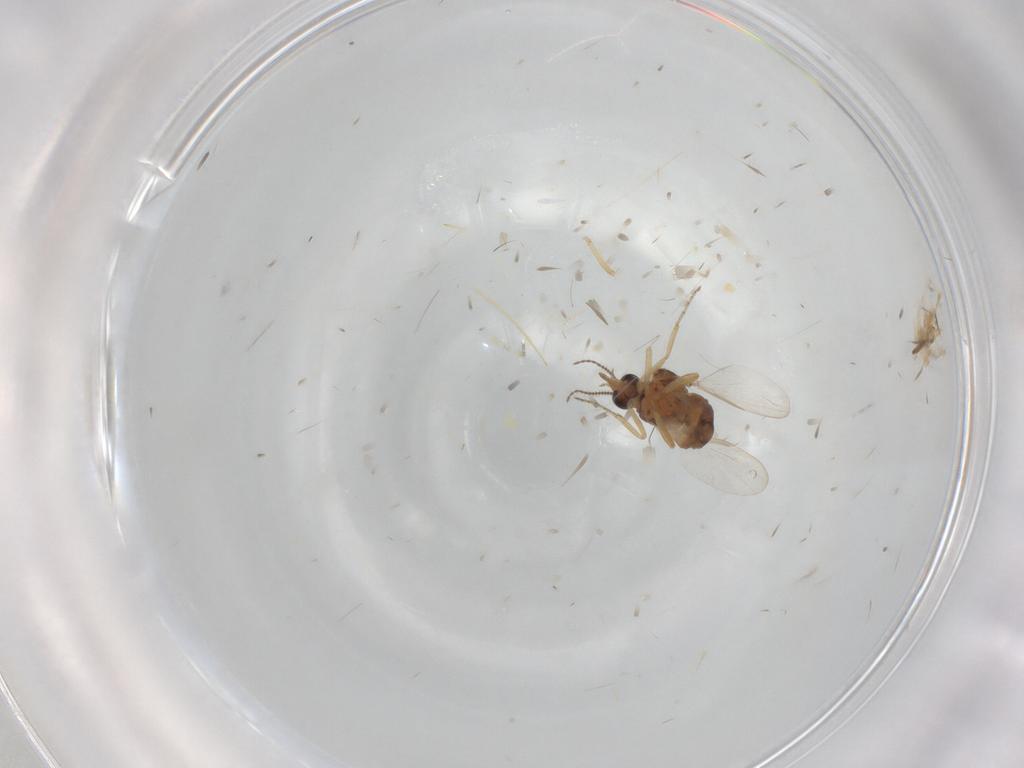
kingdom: Animalia
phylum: Arthropoda
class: Insecta
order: Diptera
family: Ceratopogonidae
